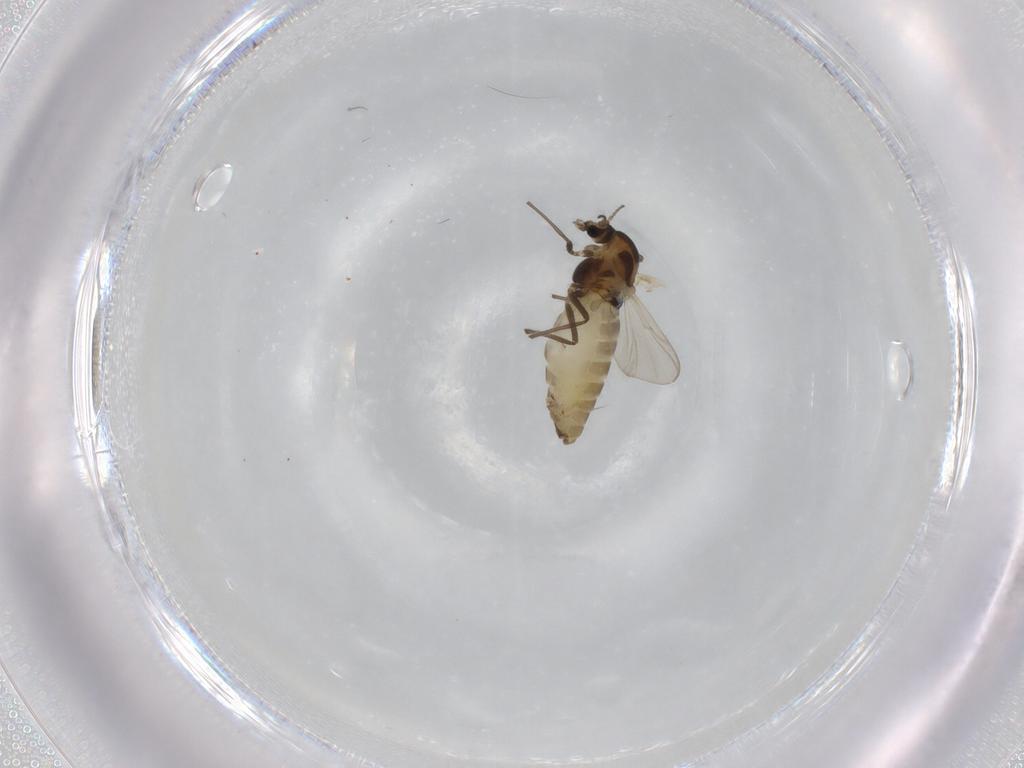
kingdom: Animalia
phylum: Arthropoda
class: Insecta
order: Diptera
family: Chironomidae
